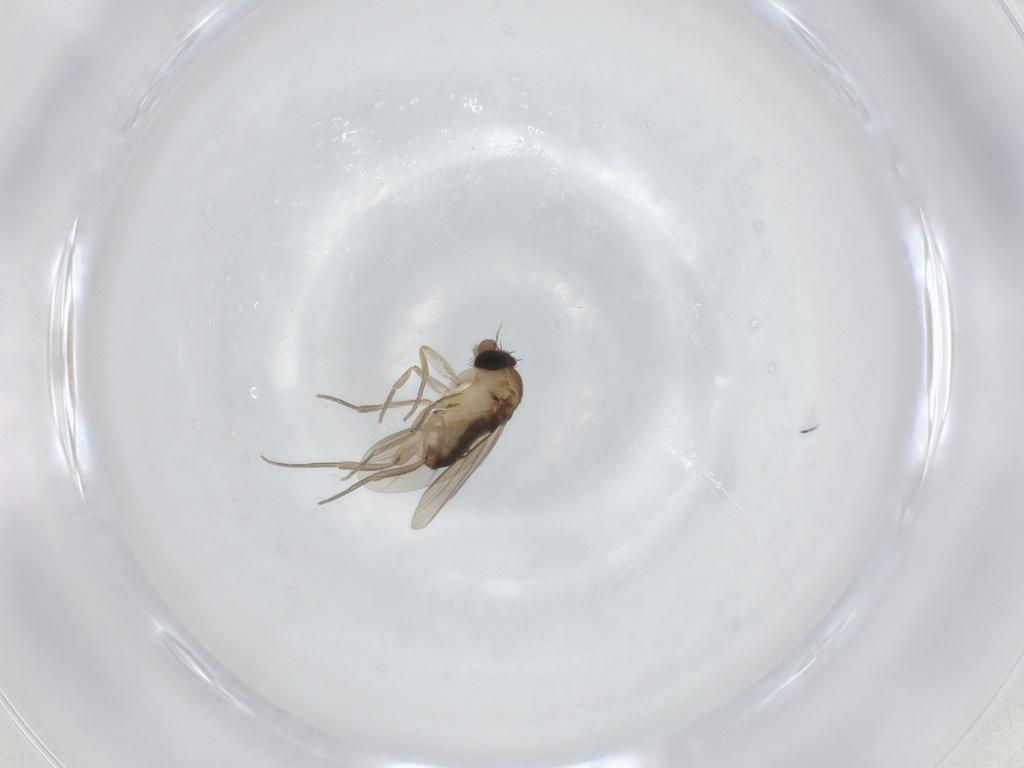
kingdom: Animalia
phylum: Arthropoda
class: Insecta
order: Diptera
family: Phoridae
